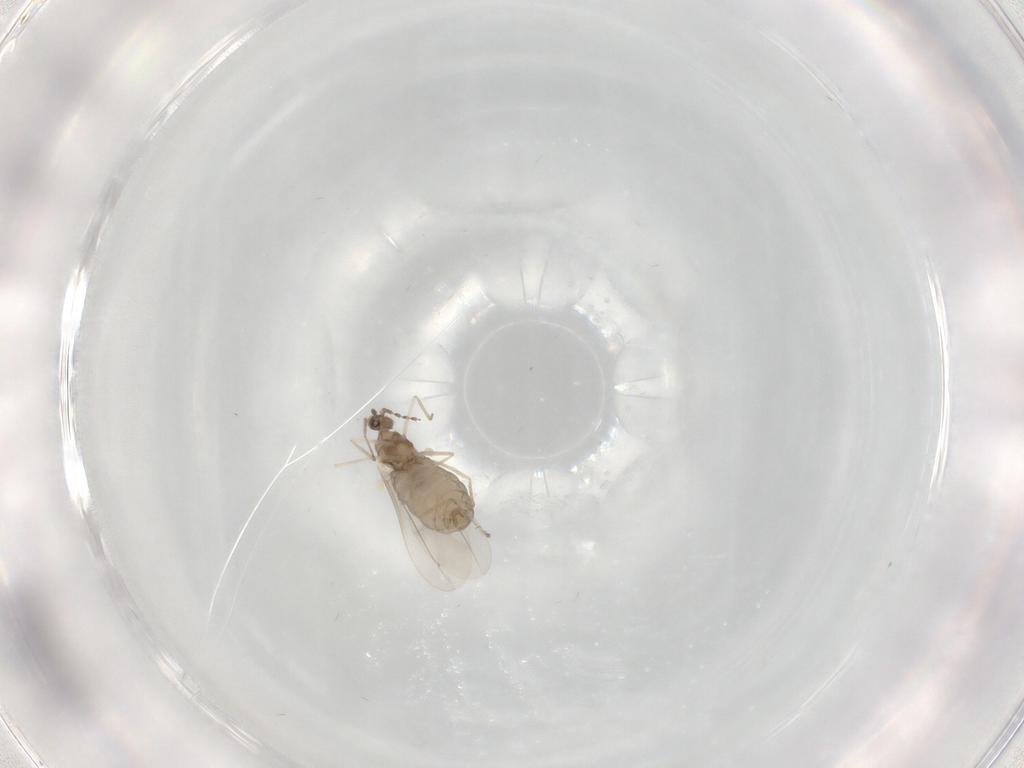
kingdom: Animalia
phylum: Arthropoda
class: Insecta
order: Diptera
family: Cecidomyiidae
